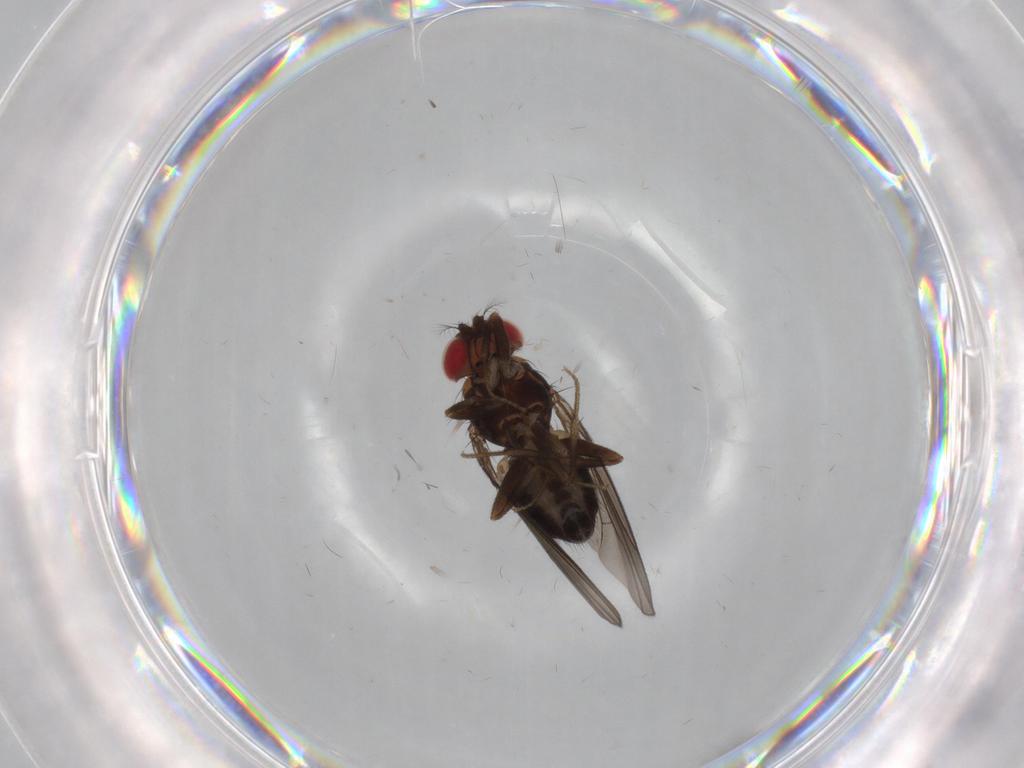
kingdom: Animalia
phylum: Arthropoda
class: Insecta
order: Diptera
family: Drosophilidae
